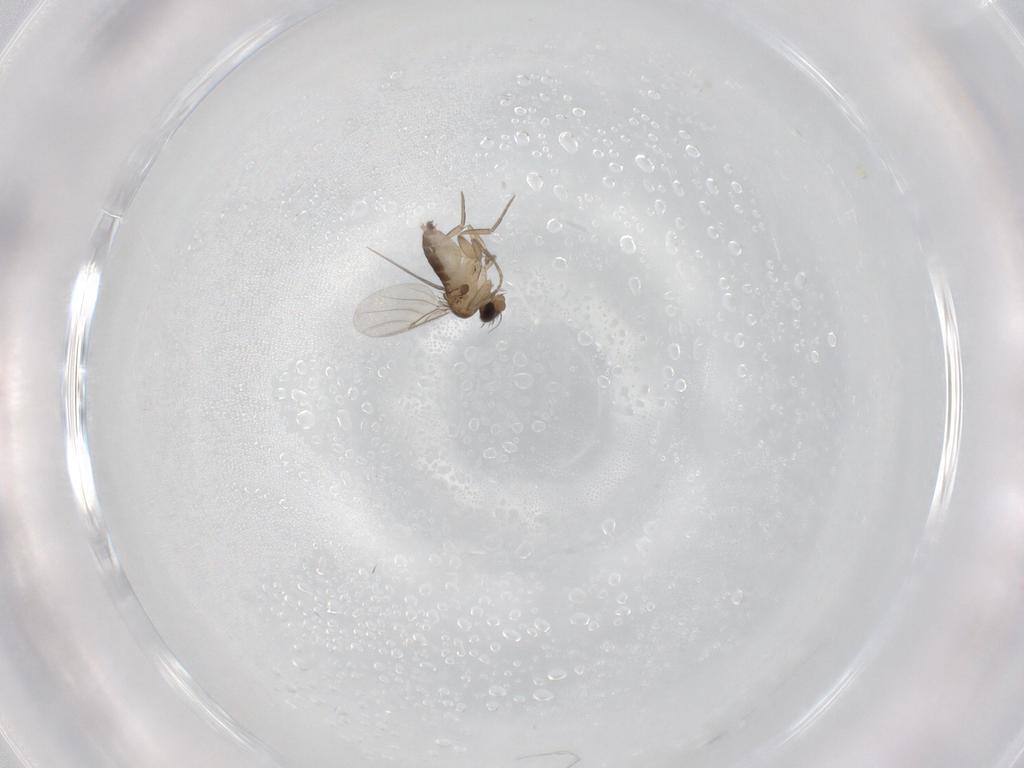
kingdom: Animalia
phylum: Arthropoda
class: Insecta
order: Diptera
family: Phoridae
